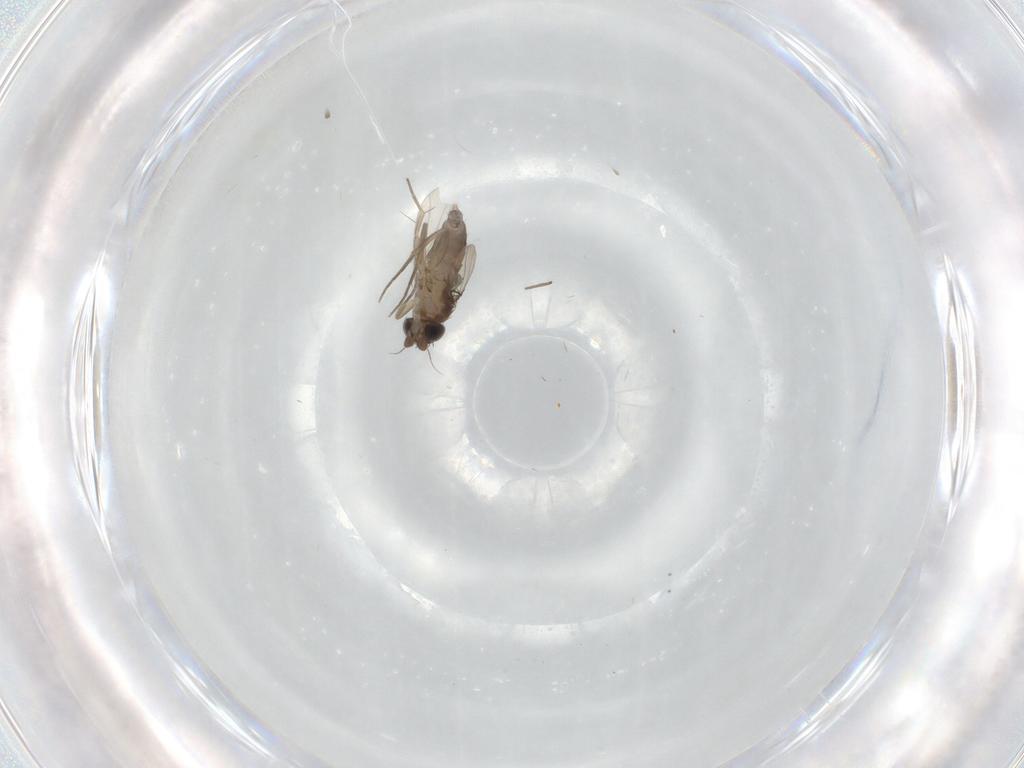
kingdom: Animalia
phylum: Arthropoda
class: Insecta
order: Diptera
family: Phoridae
